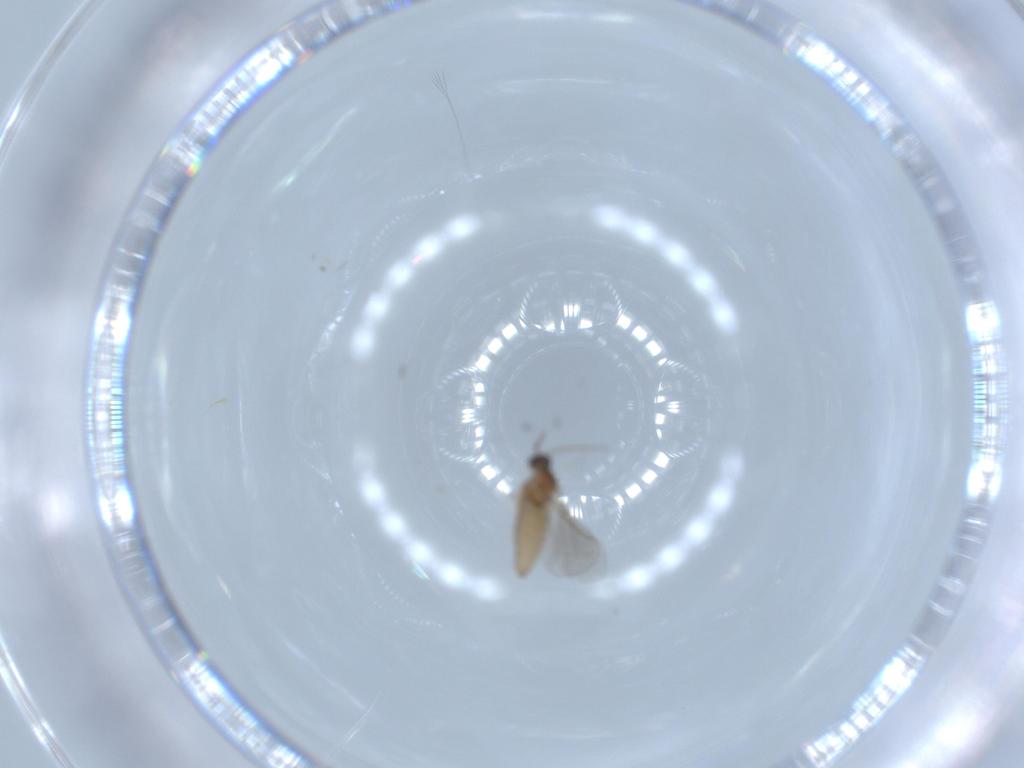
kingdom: Animalia
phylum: Arthropoda
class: Insecta
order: Diptera
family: Cecidomyiidae
